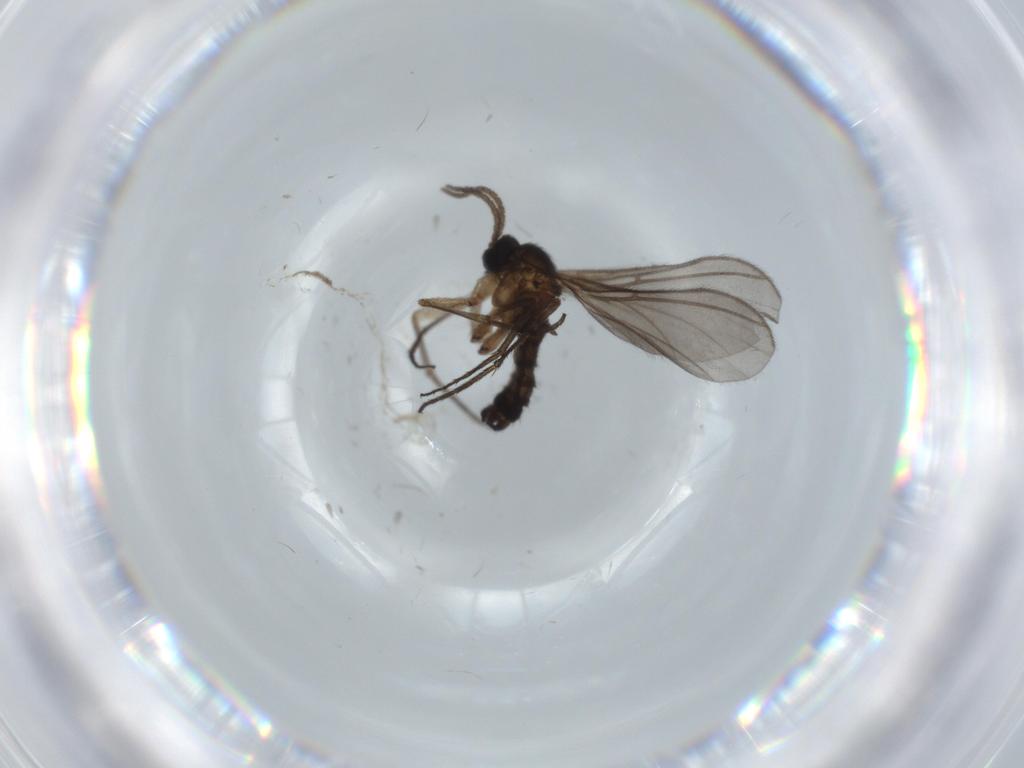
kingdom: Animalia
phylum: Arthropoda
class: Insecta
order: Diptera
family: Sciaridae
